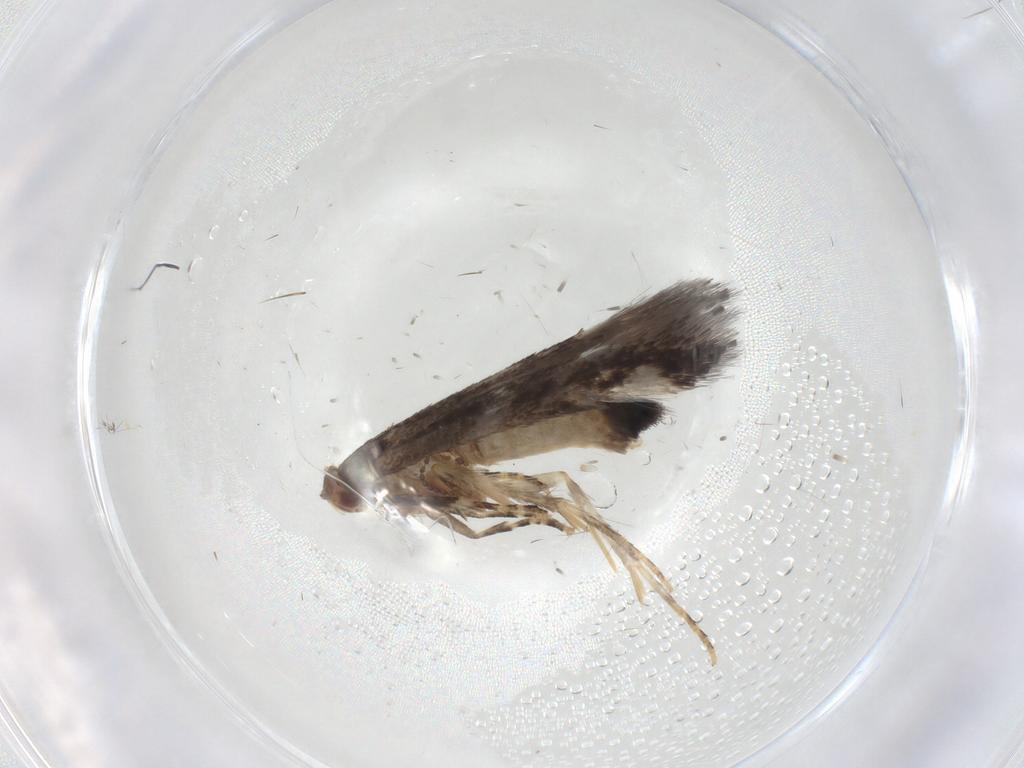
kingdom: Animalia
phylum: Arthropoda
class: Insecta
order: Lepidoptera
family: Elachistidae
